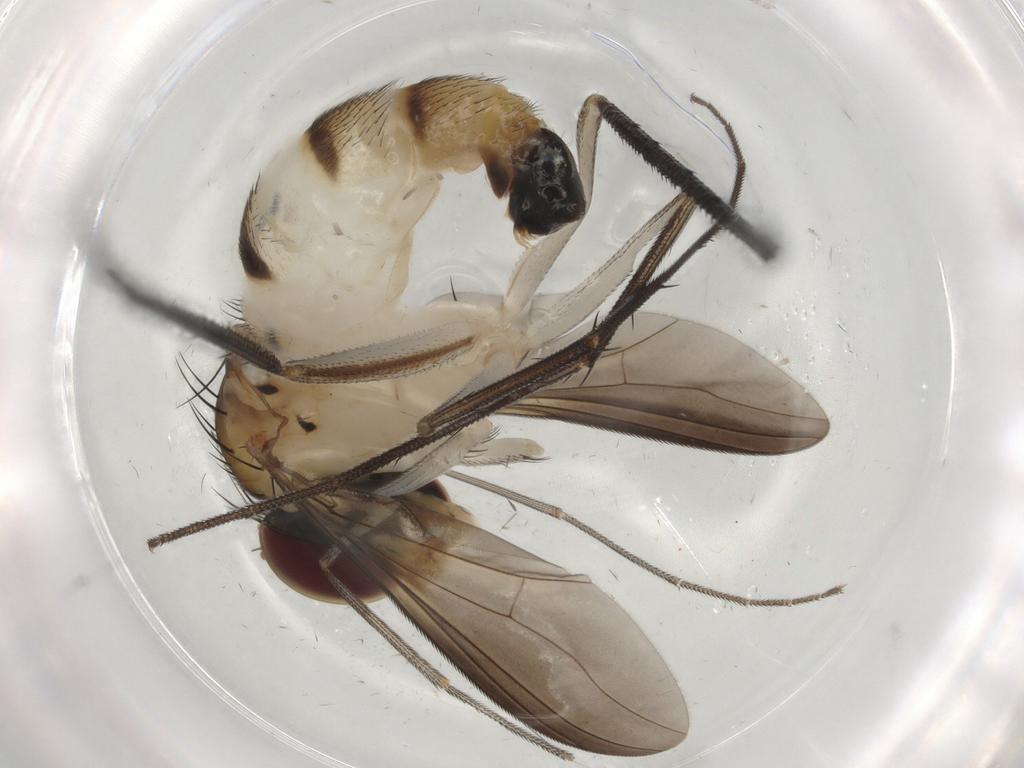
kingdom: Animalia
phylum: Arthropoda
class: Insecta
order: Diptera
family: Dolichopodidae
